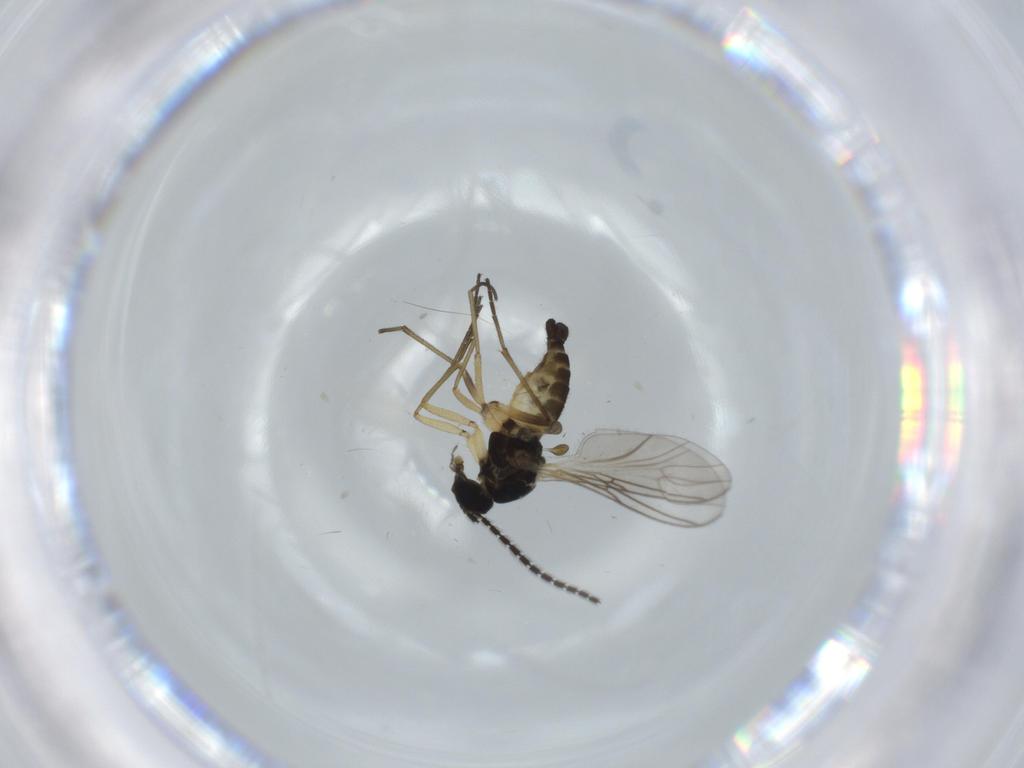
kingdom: Animalia
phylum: Arthropoda
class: Insecta
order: Diptera
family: Sciaridae
